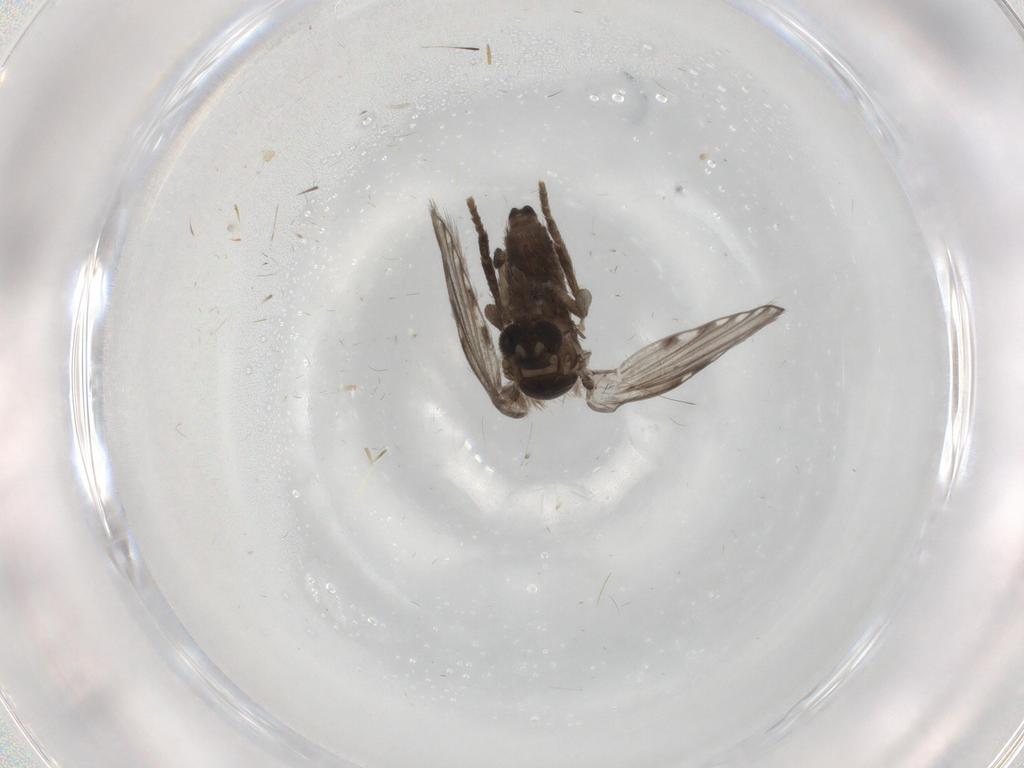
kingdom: Animalia
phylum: Arthropoda
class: Insecta
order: Diptera
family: Psychodidae
